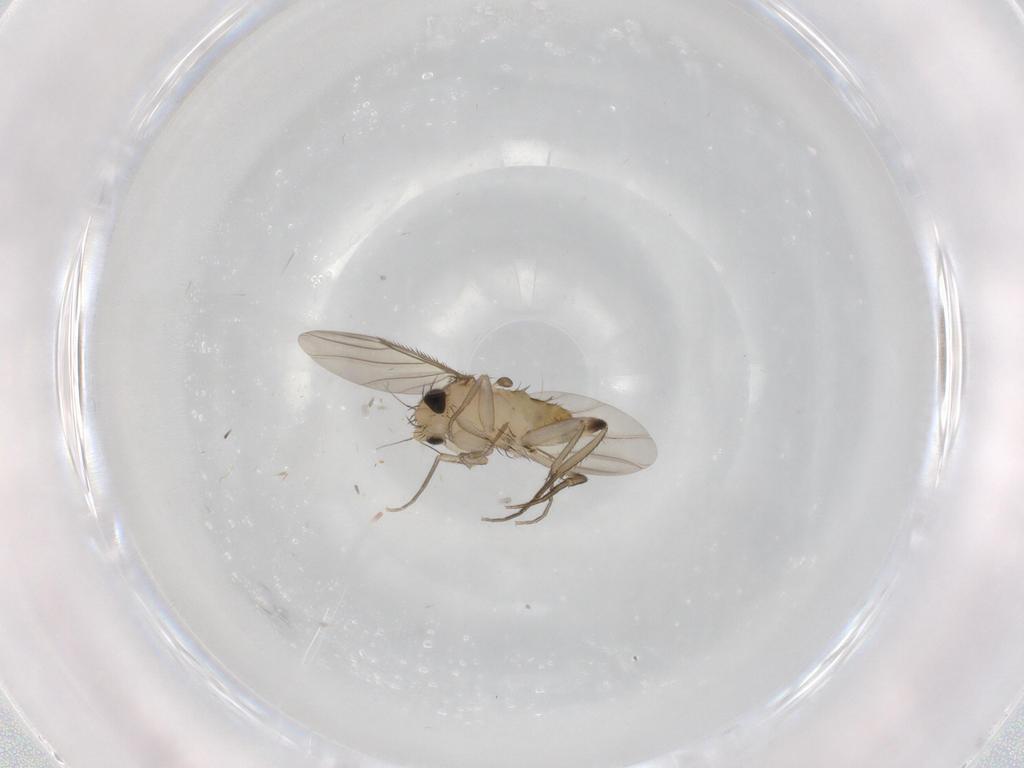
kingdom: Animalia
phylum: Arthropoda
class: Insecta
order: Diptera
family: Phoridae
